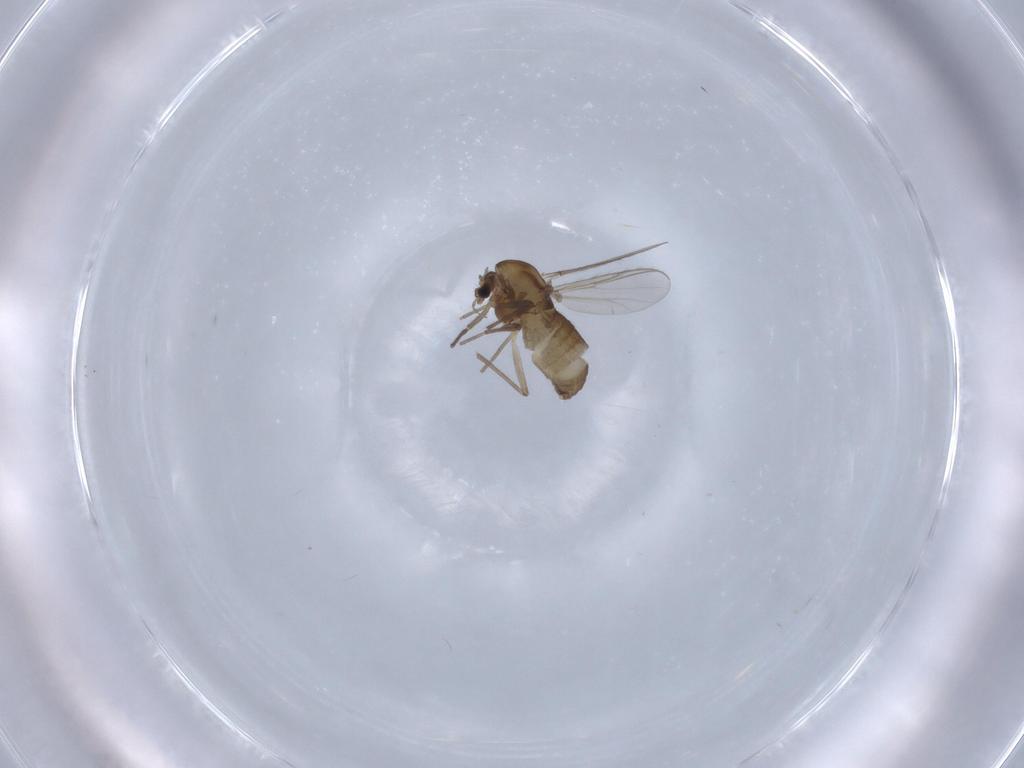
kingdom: Animalia
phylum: Arthropoda
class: Insecta
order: Diptera
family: Chironomidae
